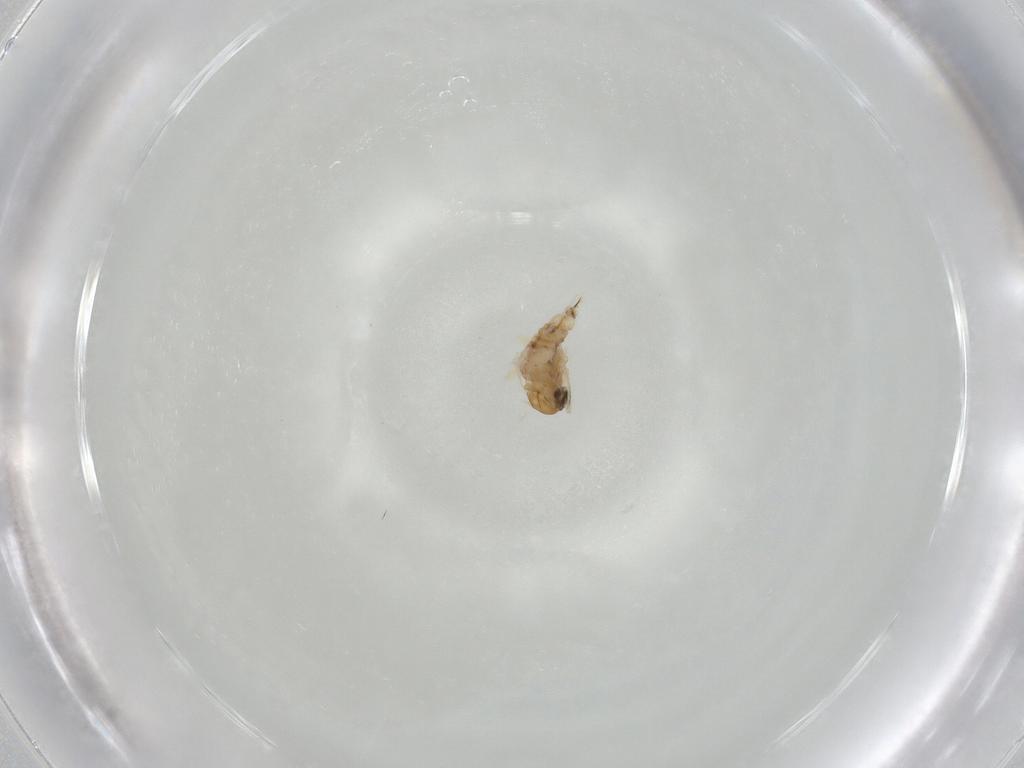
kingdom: Animalia
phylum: Arthropoda
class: Insecta
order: Diptera
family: Cecidomyiidae
